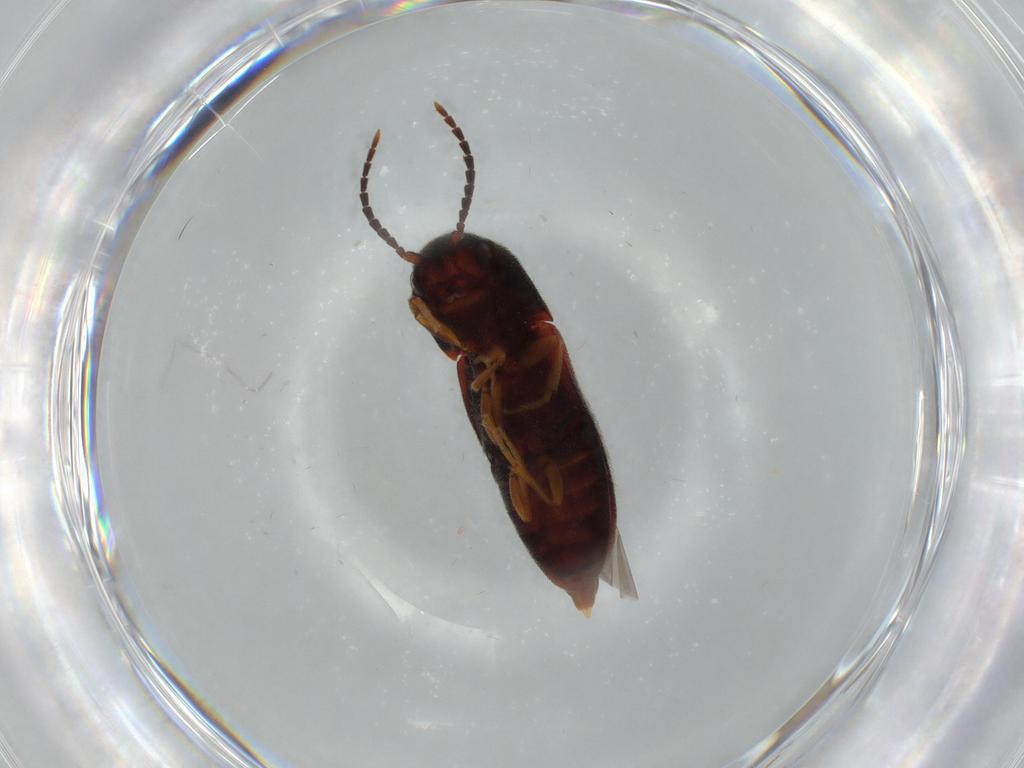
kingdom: Animalia
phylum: Arthropoda
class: Insecta
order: Coleoptera
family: Eucnemidae
